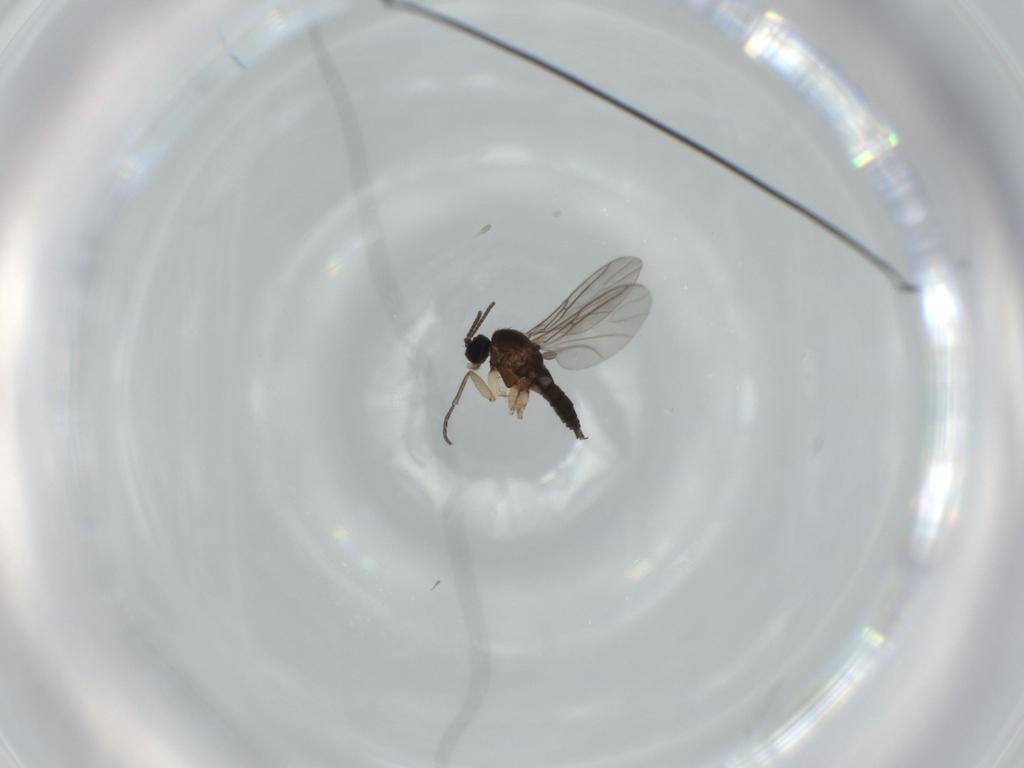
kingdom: Animalia
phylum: Arthropoda
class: Insecta
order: Diptera
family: Sciaridae
